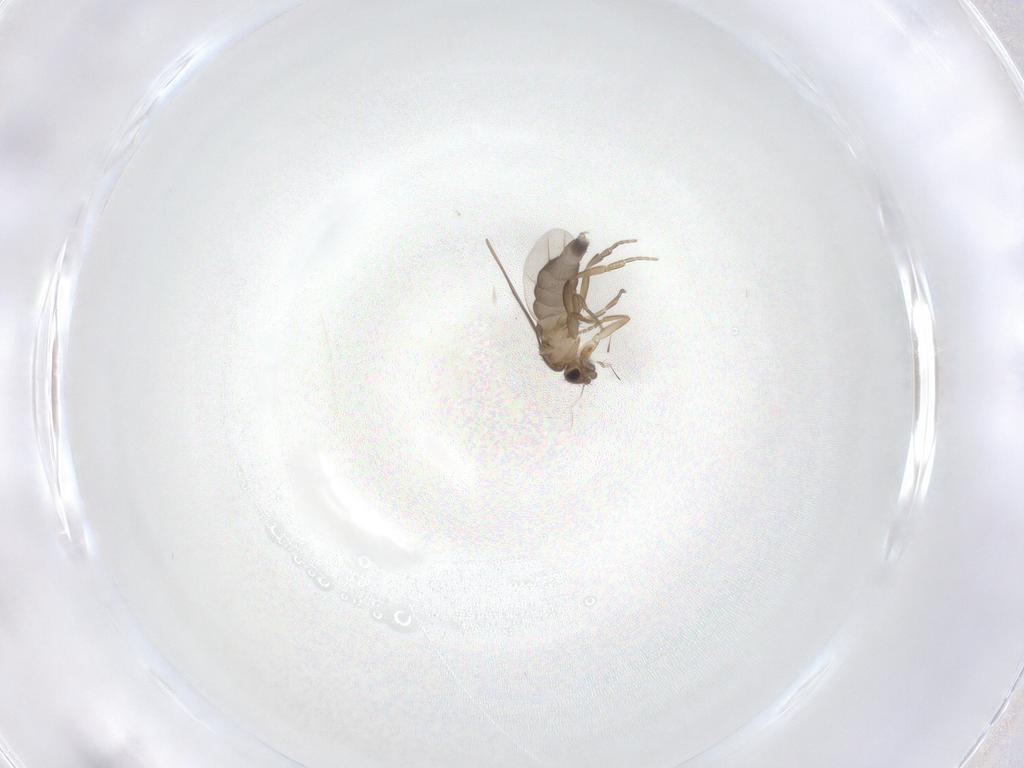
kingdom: Animalia
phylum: Arthropoda
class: Insecta
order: Diptera
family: Phoridae
